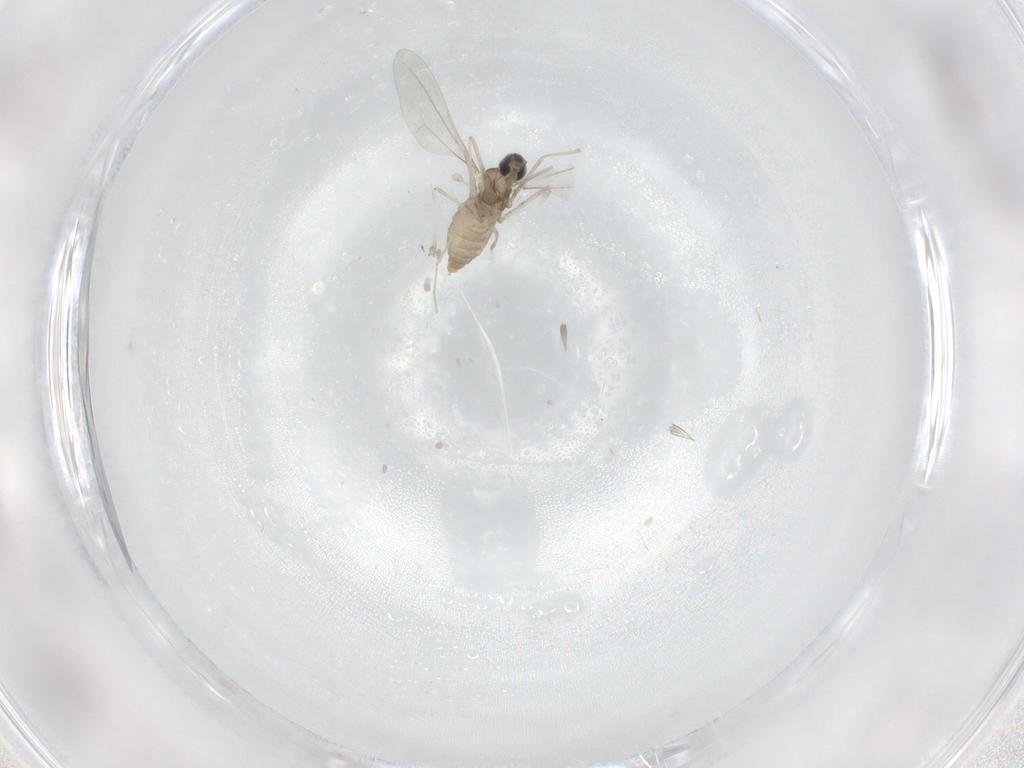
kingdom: Animalia
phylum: Arthropoda
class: Insecta
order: Diptera
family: Cecidomyiidae
